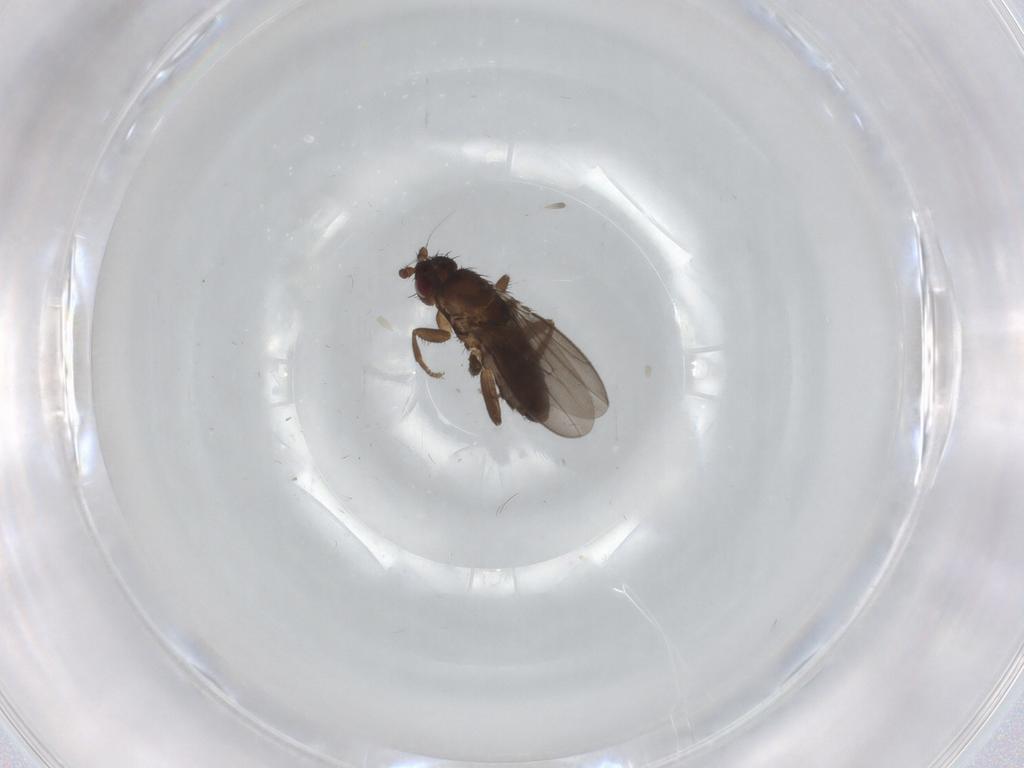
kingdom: Animalia
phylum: Arthropoda
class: Insecta
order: Diptera
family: Sphaeroceridae
